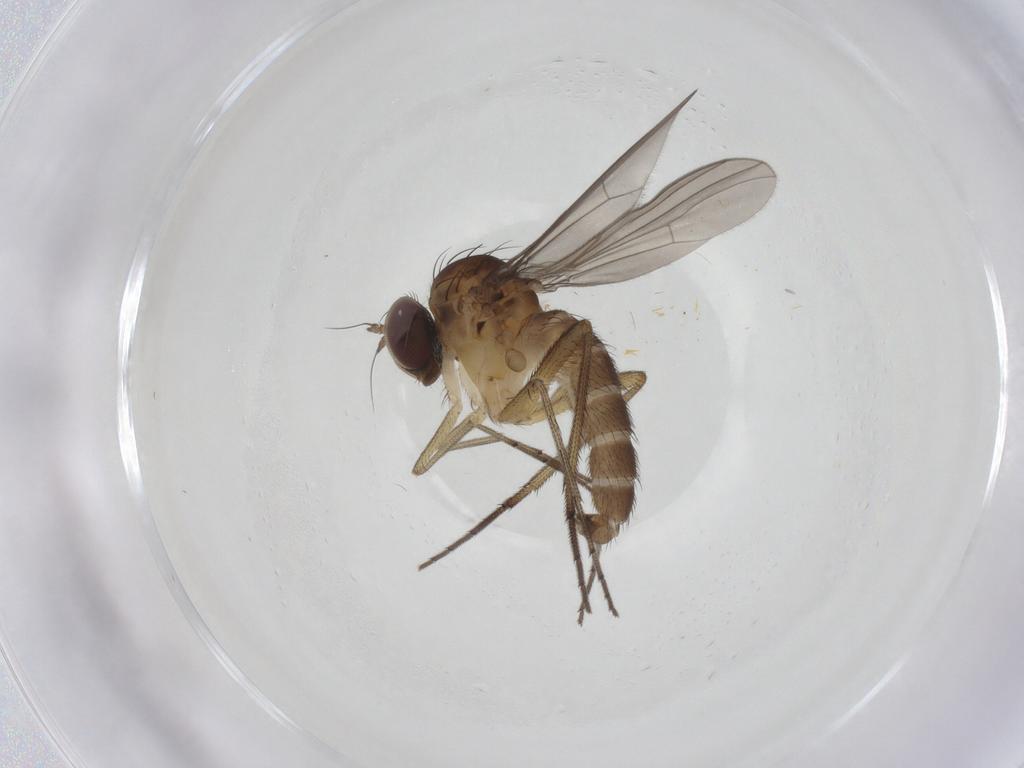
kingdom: Animalia
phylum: Arthropoda
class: Insecta
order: Diptera
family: Dolichopodidae
